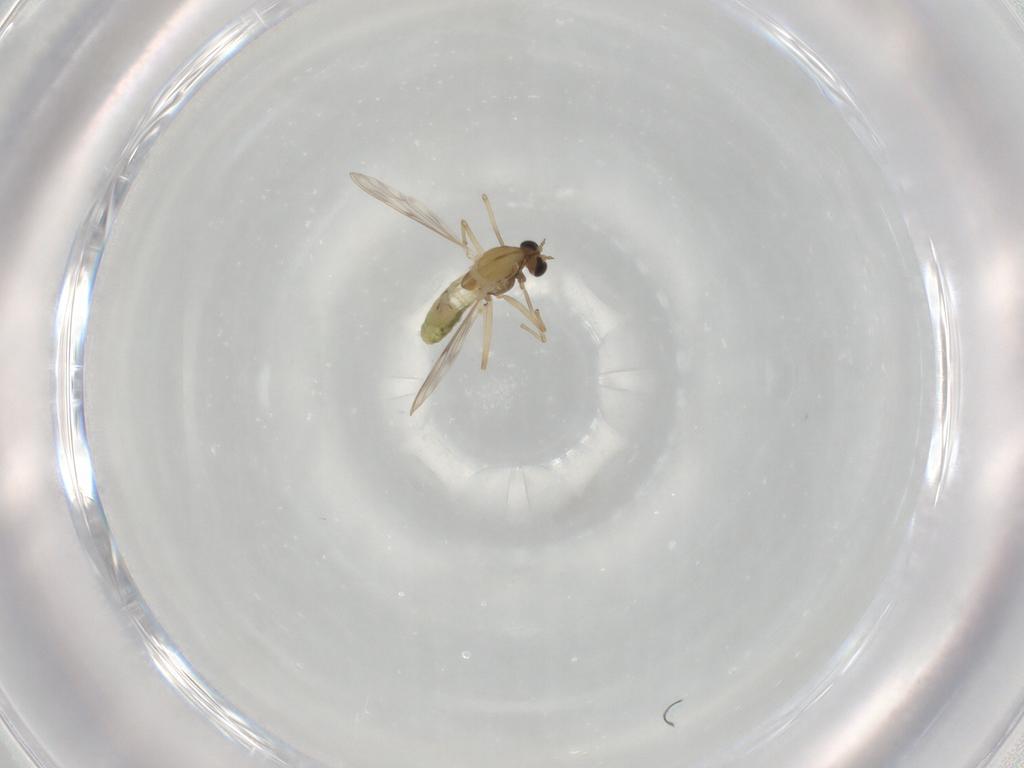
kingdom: Animalia
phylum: Arthropoda
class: Insecta
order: Diptera
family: Chironomidae
